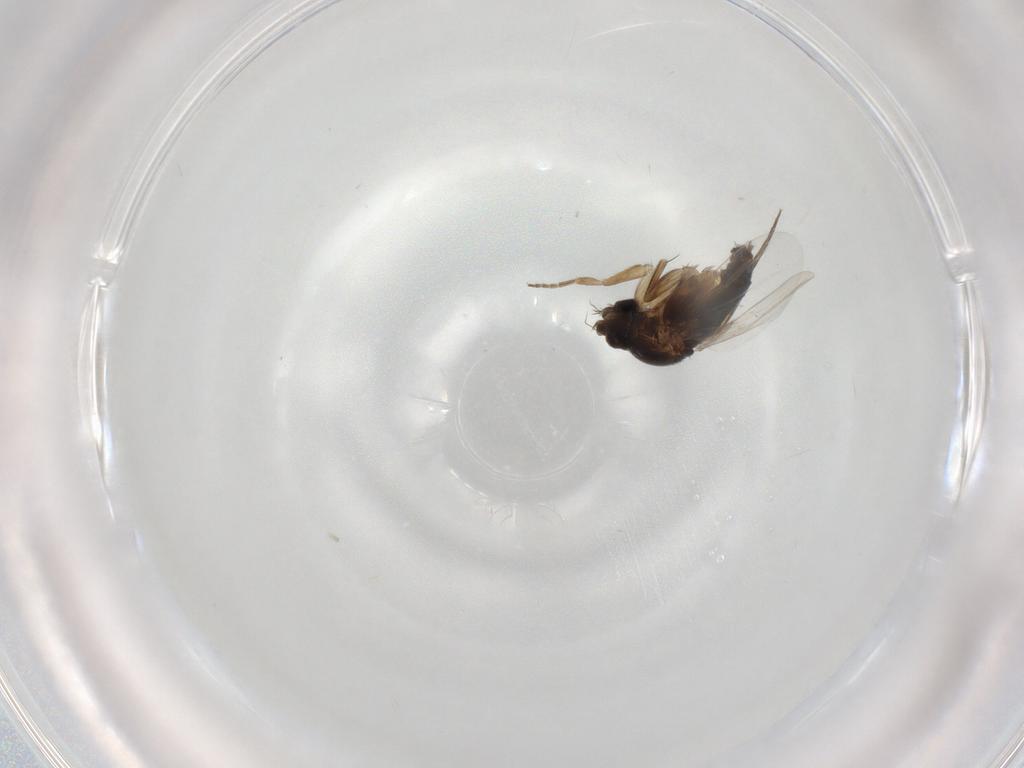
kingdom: Animalia
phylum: Arthropoda
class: Insecta
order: Diptera
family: Phoridae
